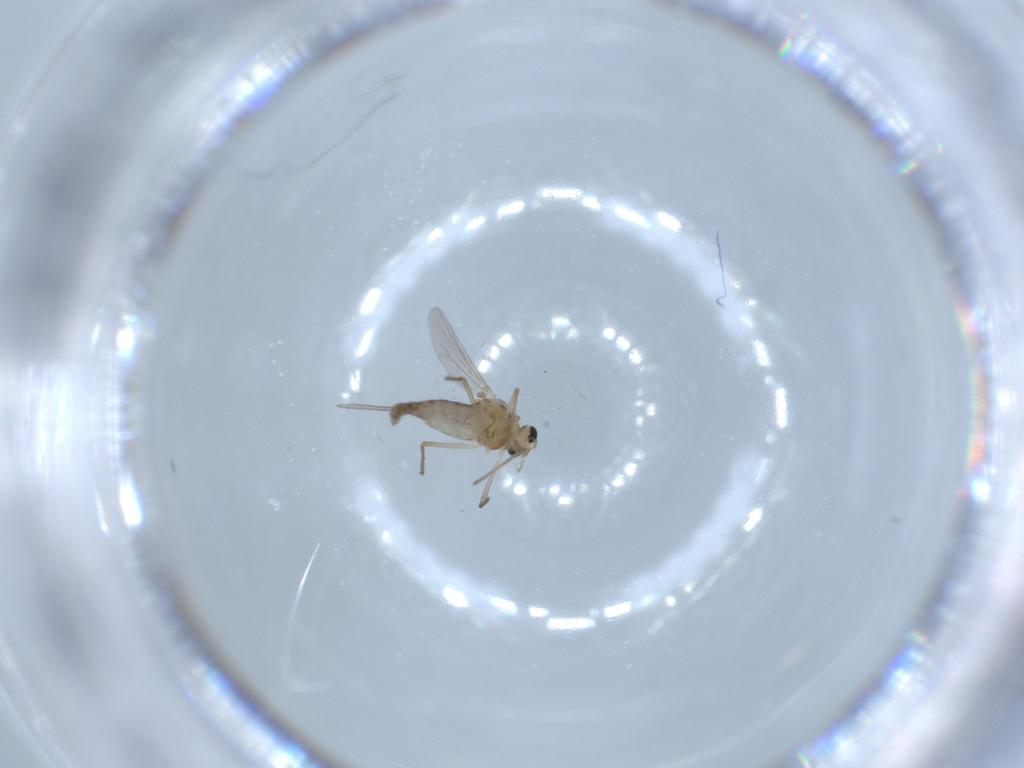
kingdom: Animalia
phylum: Arthropoda
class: Insecta
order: Diptera
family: Chironomidae
